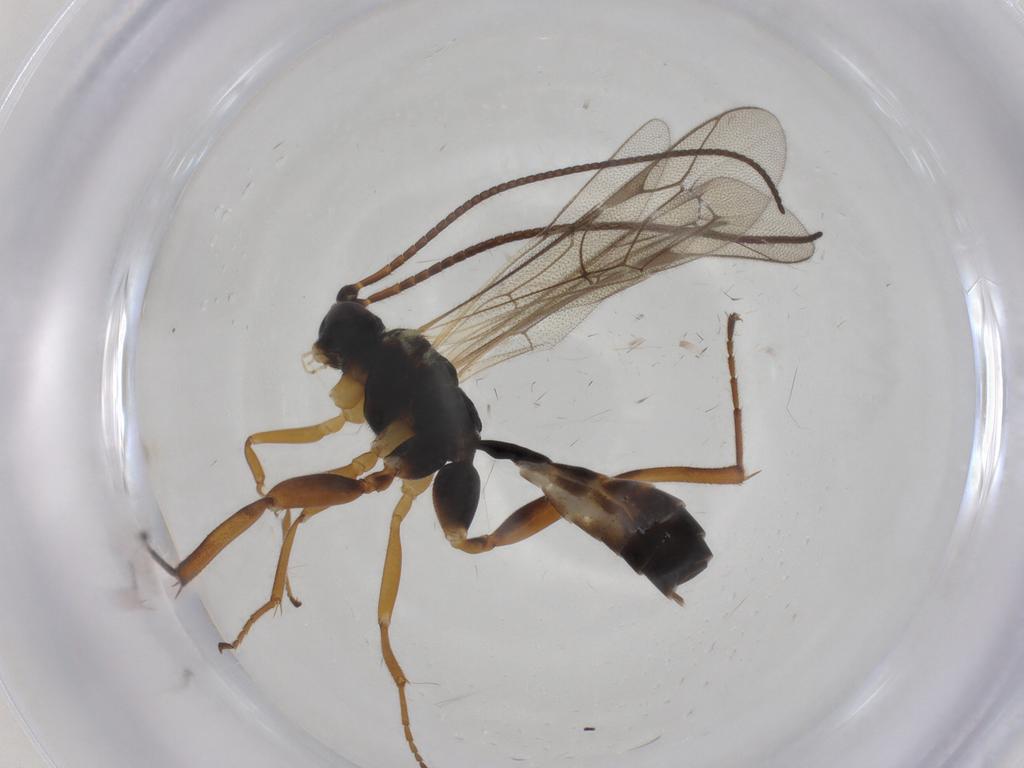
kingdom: Animalia
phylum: Arthropoda
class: Insecta
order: Hymenoptera
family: Ichneumonidae
